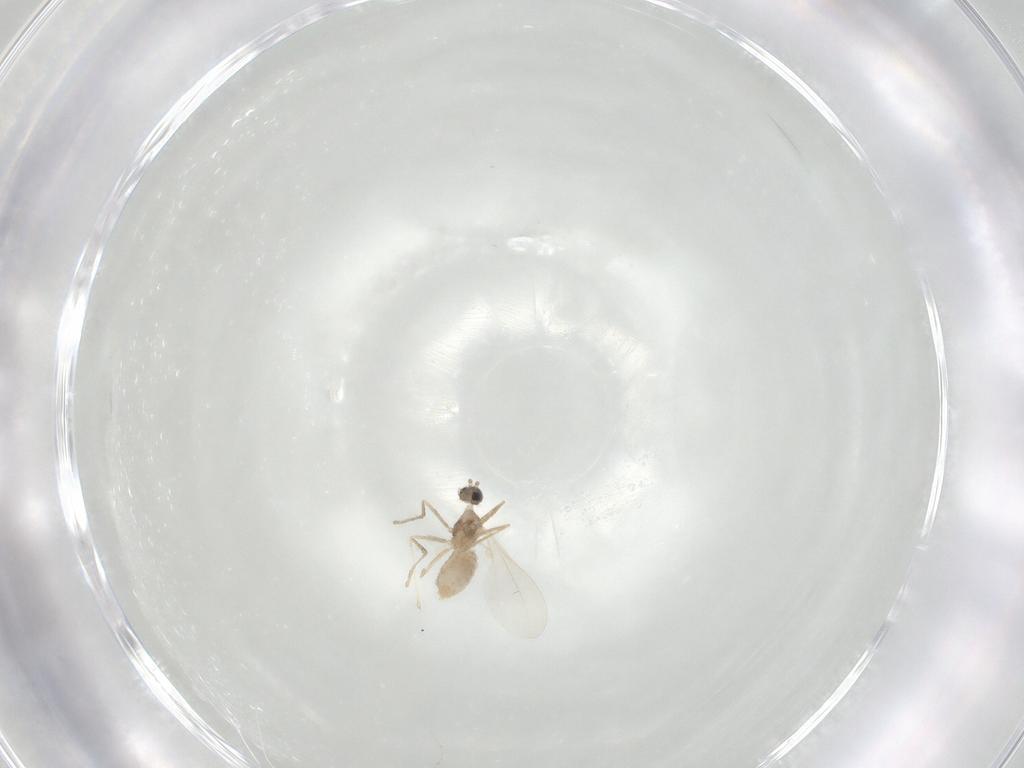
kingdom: Animalia
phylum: Arthropoda
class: Insecta
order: Diptera
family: Cecidomyiidae
